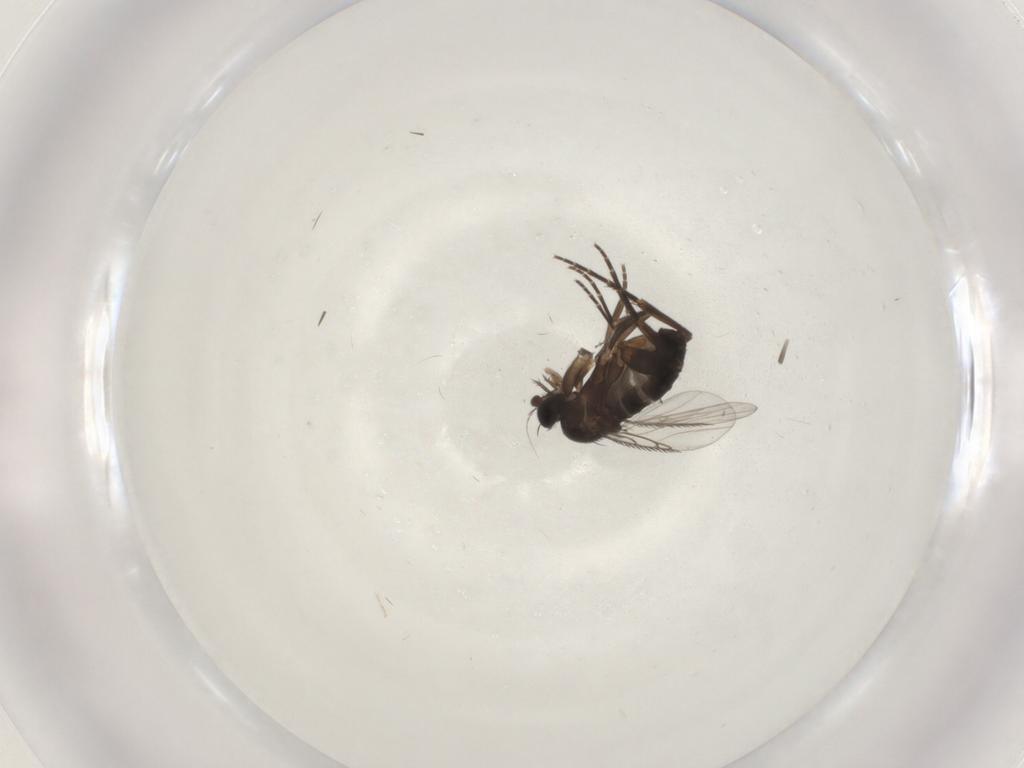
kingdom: Animalia
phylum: Arthropoda
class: Insecta
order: Diptera
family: Phoridae
